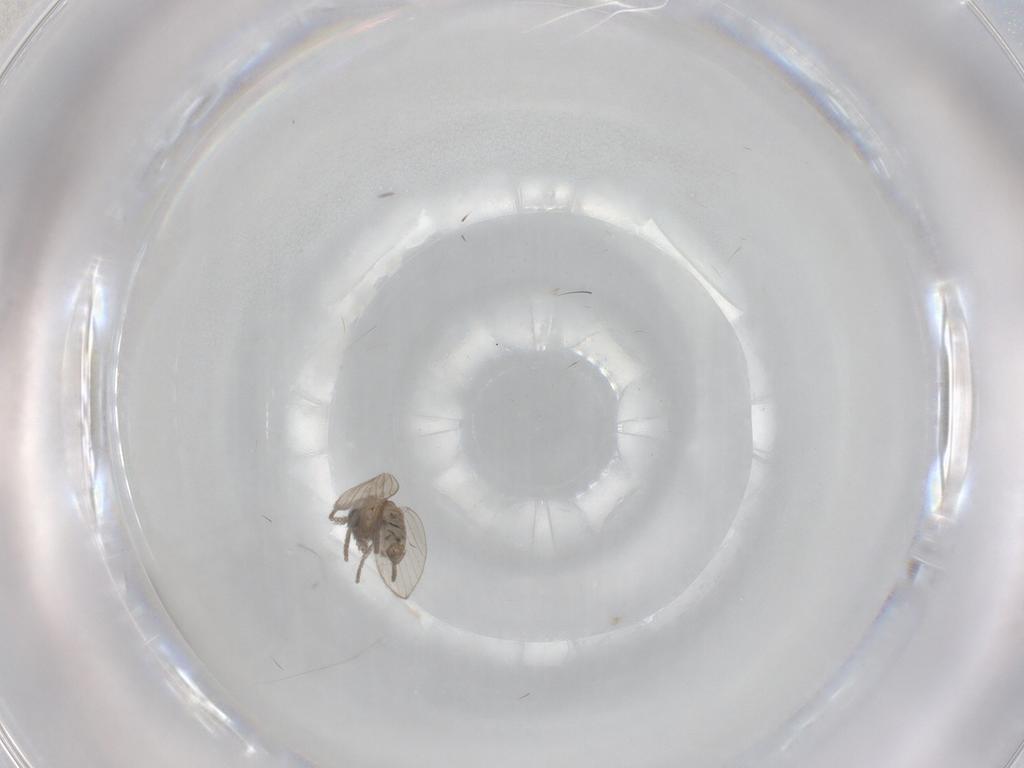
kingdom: Animalia
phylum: Arthropoda
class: Insecta
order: Diptera
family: Psychodidae
